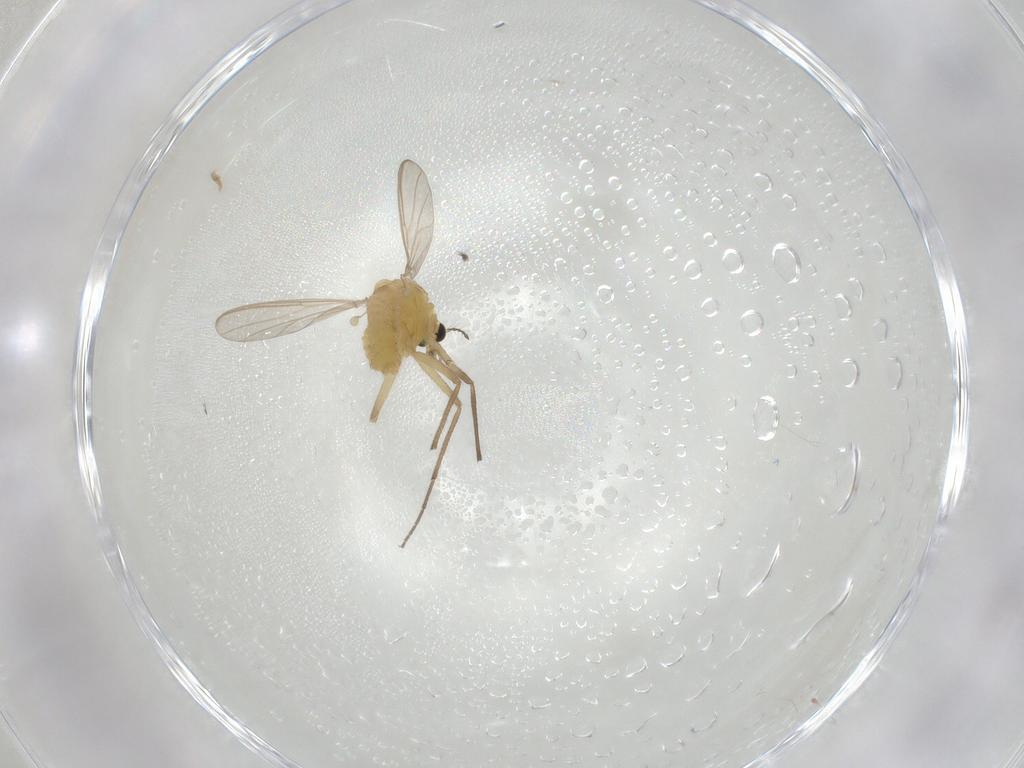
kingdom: Animalia
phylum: Arthropoda
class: Insecta
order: Diptera
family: Chironomidae
